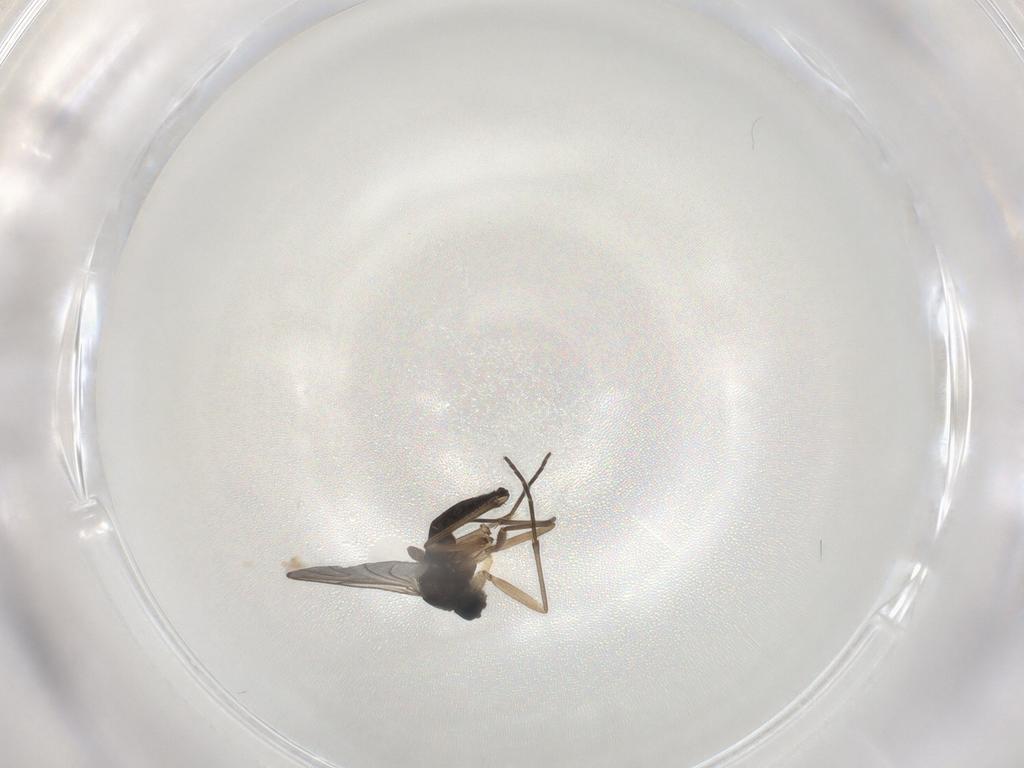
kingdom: Animalia
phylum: Arthropoda
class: Insecta
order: Diptera
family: Sciaridae
